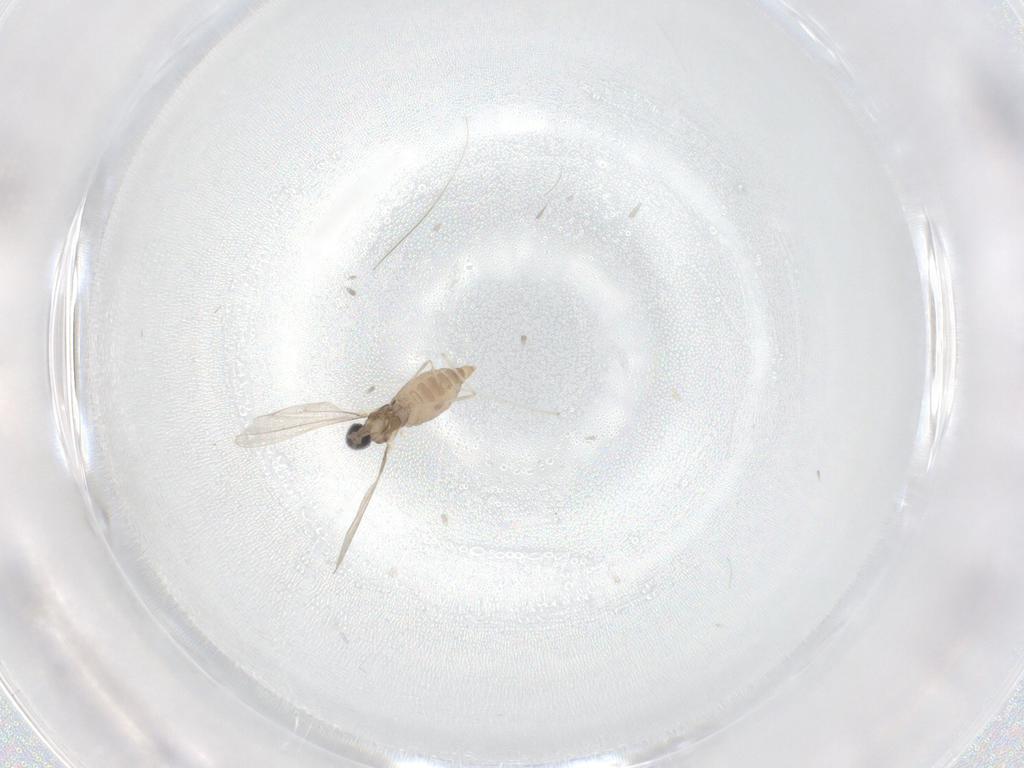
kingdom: Animalia
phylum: Arthropoda
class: Insecta
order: Diptera
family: Cecidomyiidae
